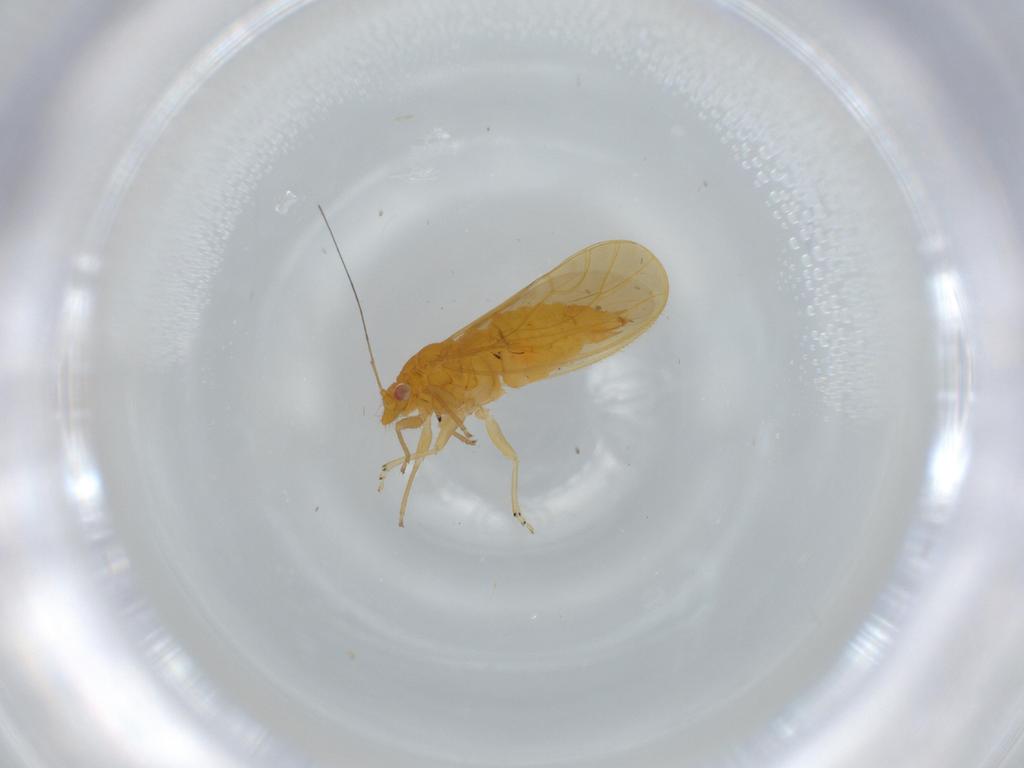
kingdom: Animalia
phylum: Arthropoda
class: Insecta
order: Hemiptera
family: Psyllidae
